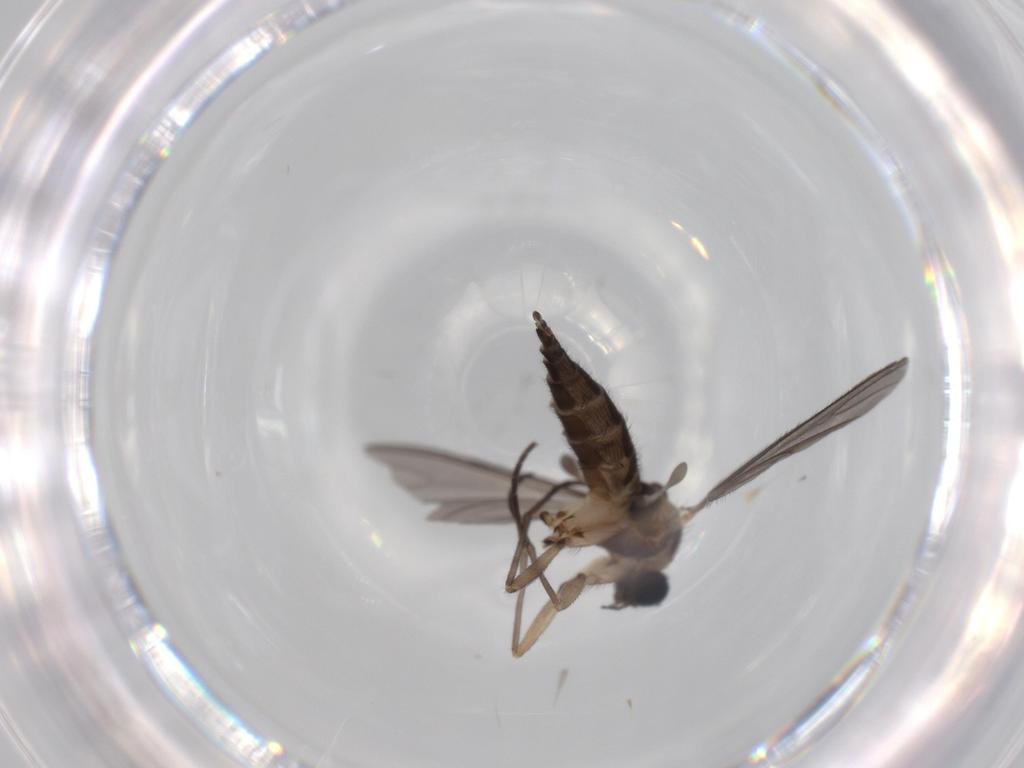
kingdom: Animalia
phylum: Arthropoda
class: Insecta
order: Diptera
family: Sciaridae
